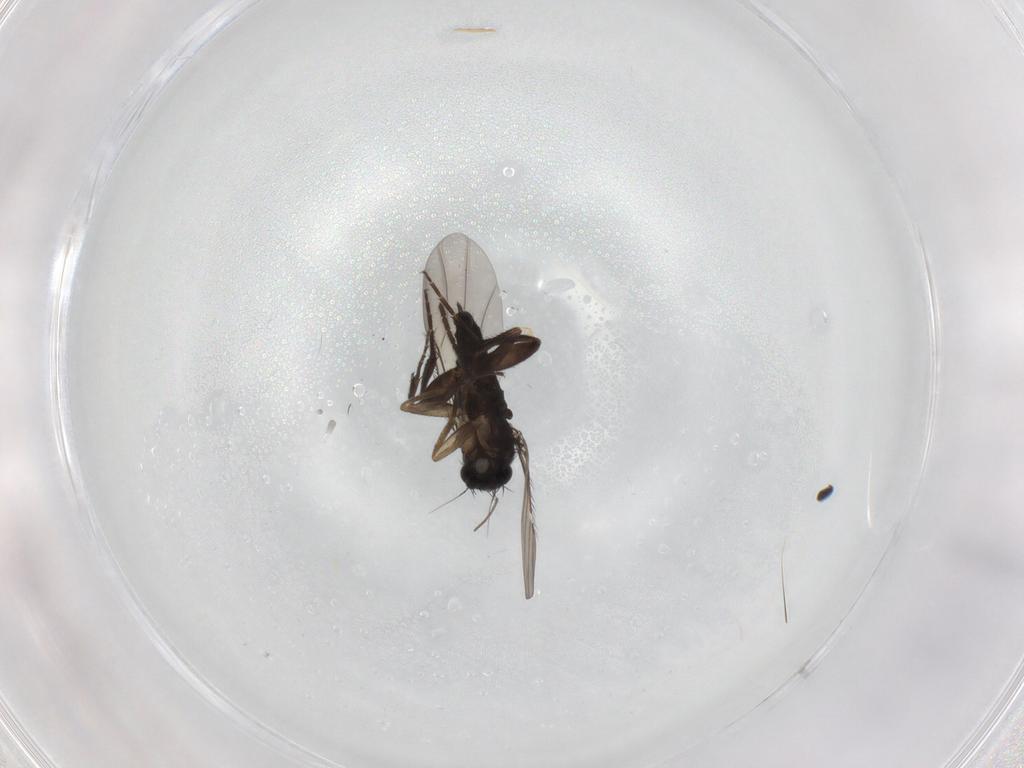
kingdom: Animalia
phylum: Arthropoda
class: Insecta
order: Diptera
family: Phoridae
